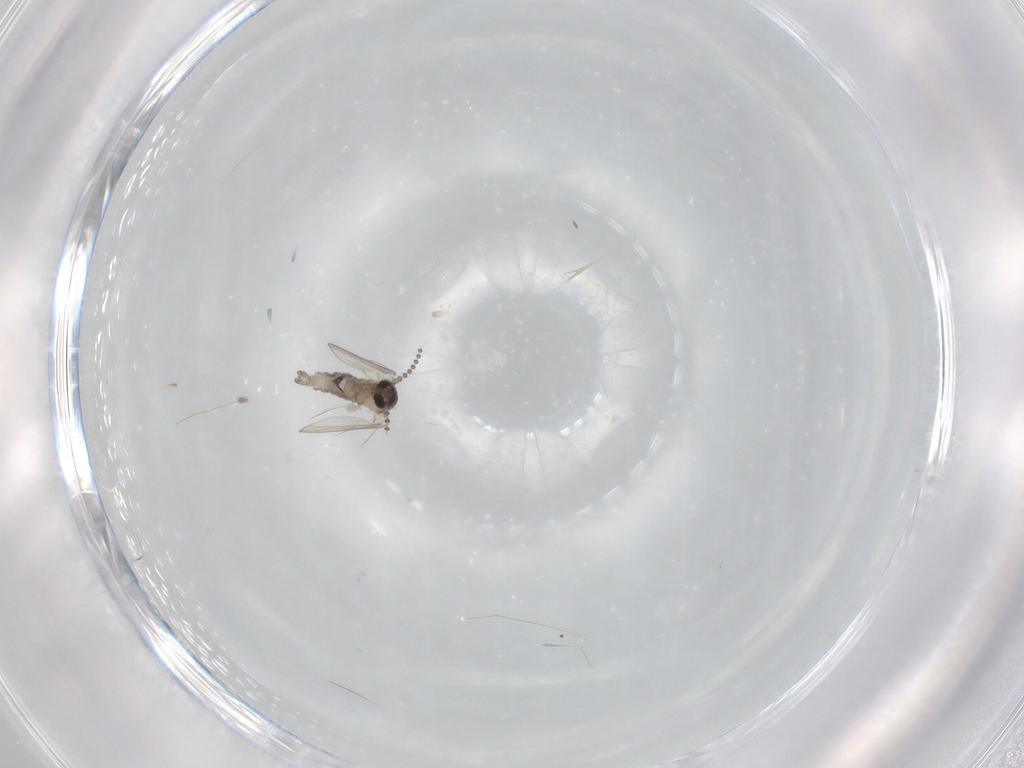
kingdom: Animalia
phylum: Arthropoda
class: Insecta
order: Diptera
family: Psychodidae
